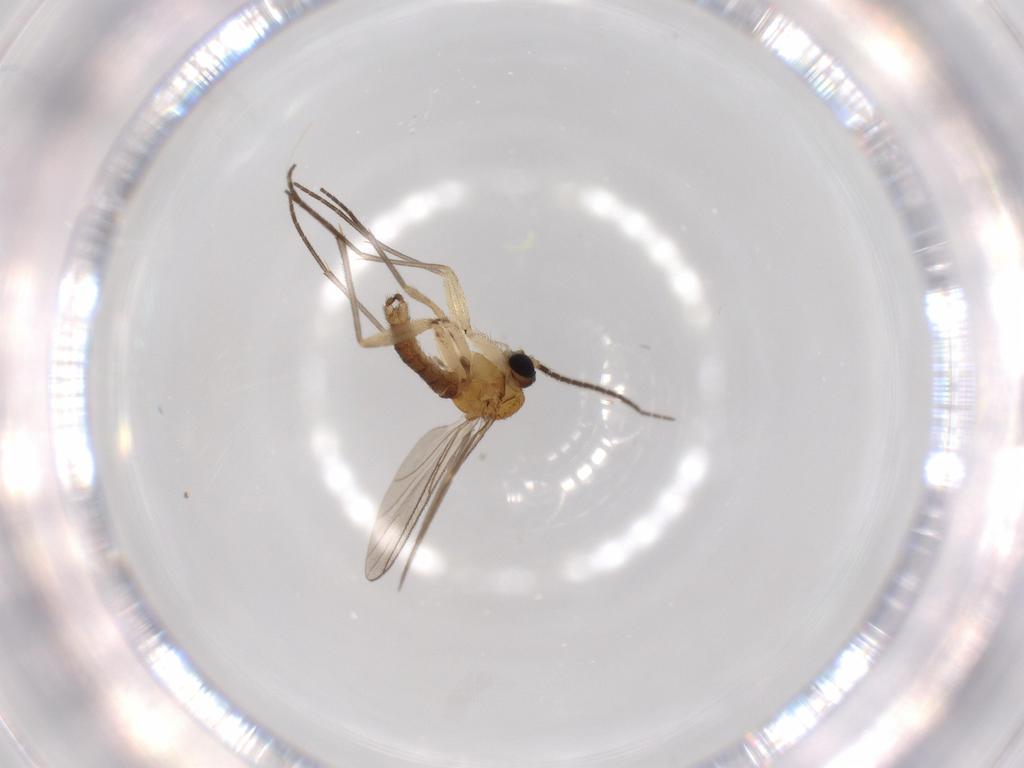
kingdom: Animalia
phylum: Arthropoda
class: Insecta
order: Diptera
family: Sciaridae
